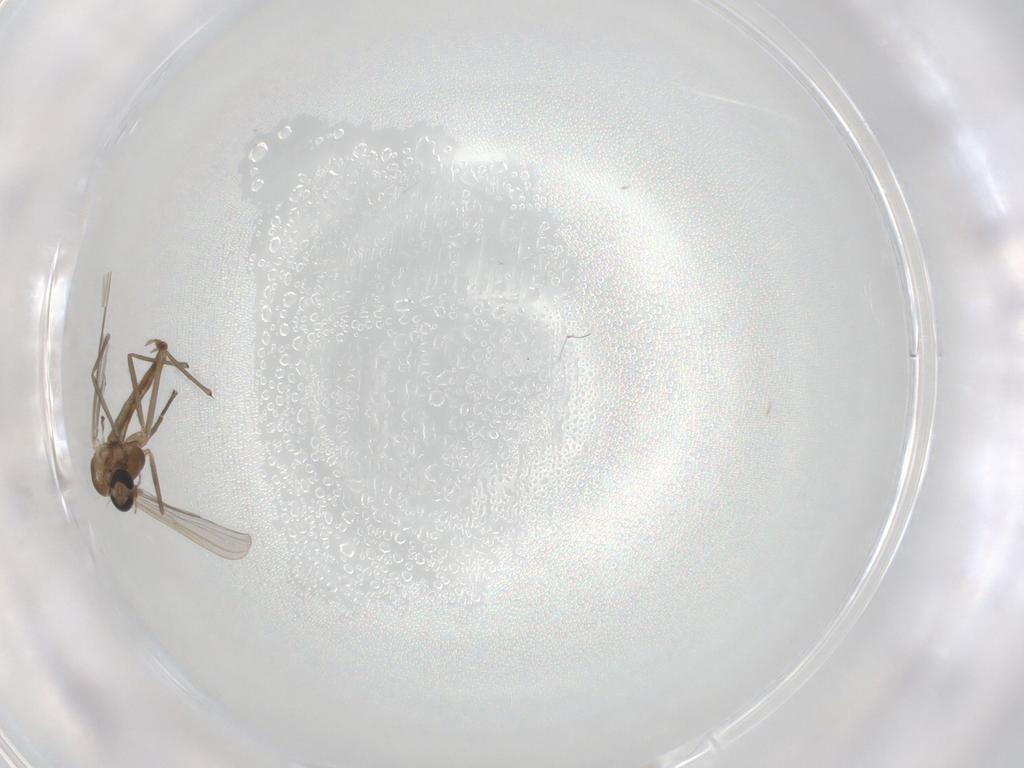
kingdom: Animalia
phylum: Arthropoda
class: Insecta
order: Diptera
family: Chironomidae
